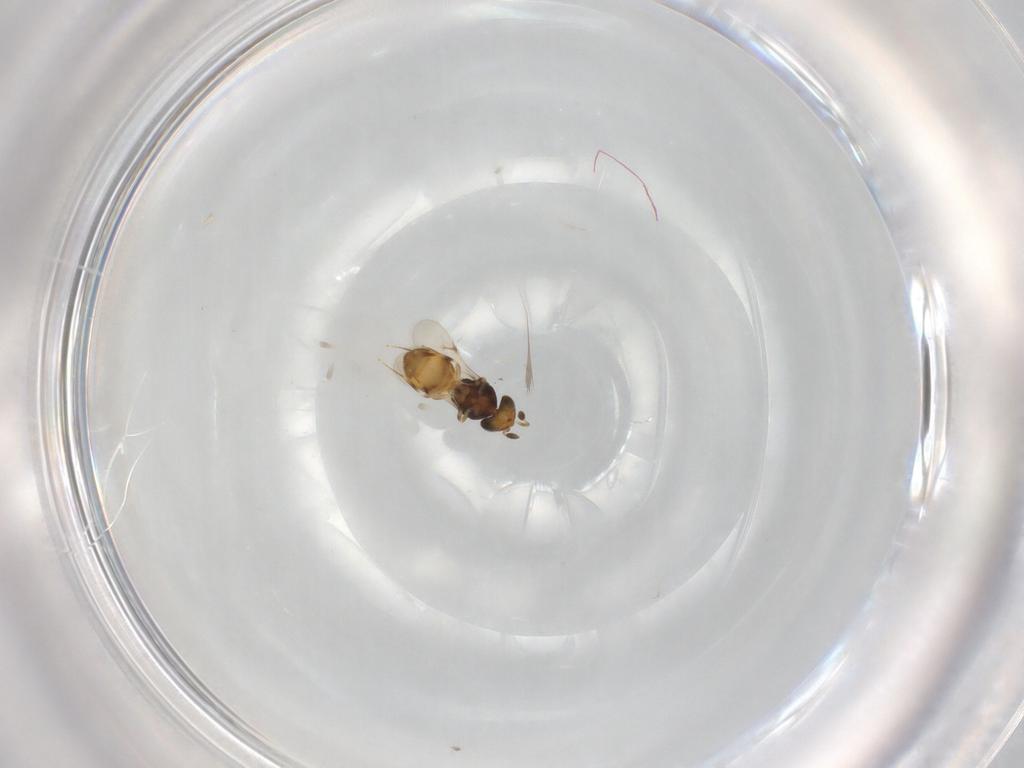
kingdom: Animalia
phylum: Arthropoda
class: Insecta
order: Hymenoptera
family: Scelionidae
